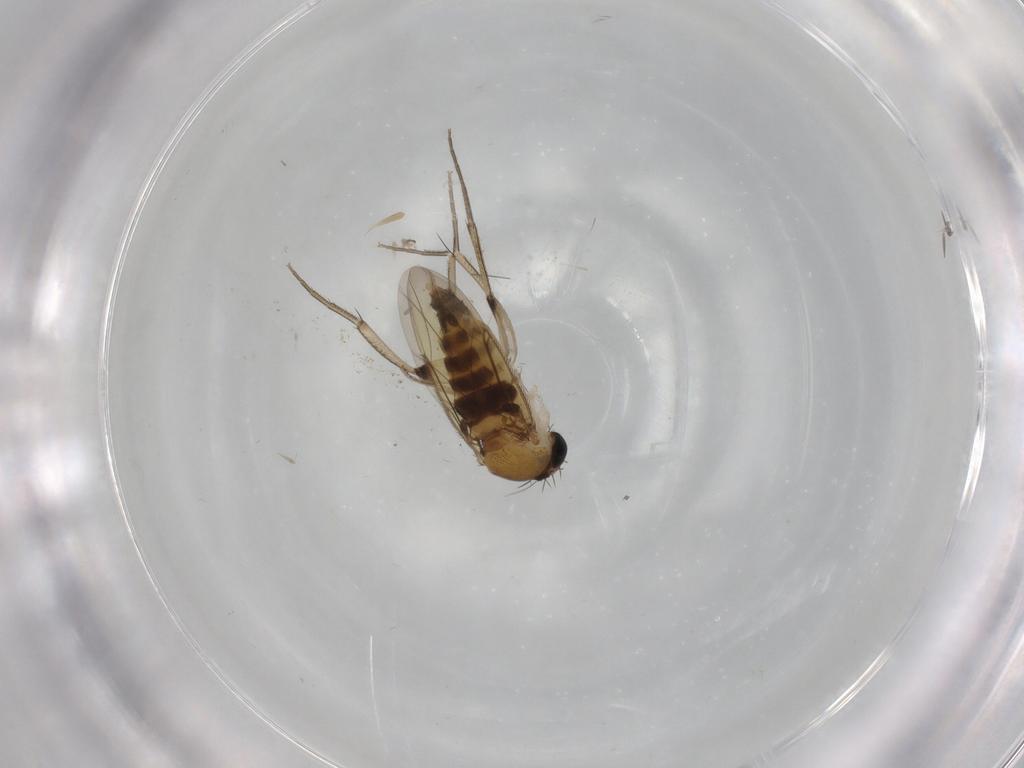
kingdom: Animalia
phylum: Arthropoda
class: Insecta
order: Diptera
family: Phoridae
